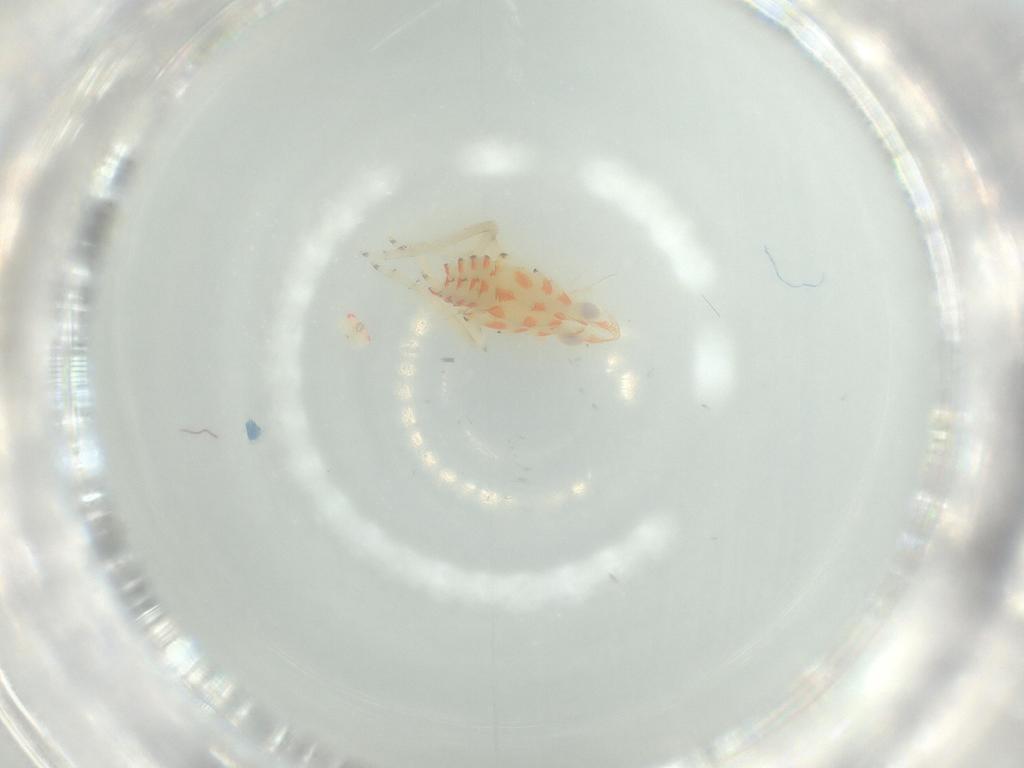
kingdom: Animalia
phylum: Arthropoda
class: Insecta
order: Hemiptera
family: Tropiduchidae
